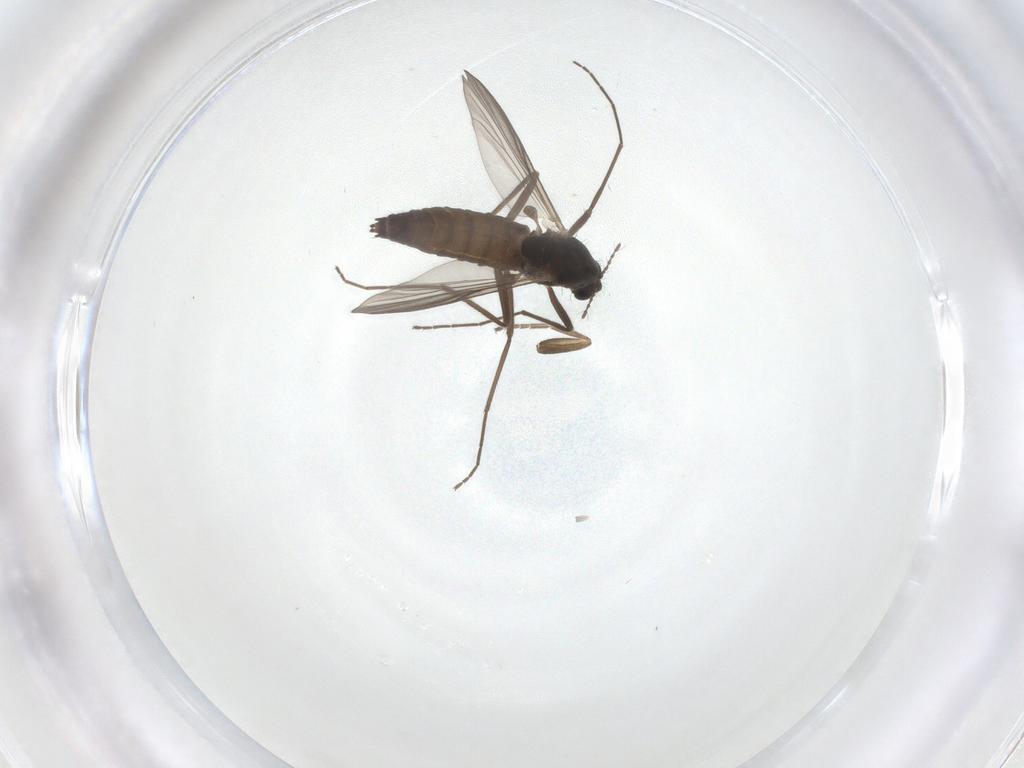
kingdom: Animalia
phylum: Arthropoda
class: Insecta
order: Diptera
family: Chironomidae
